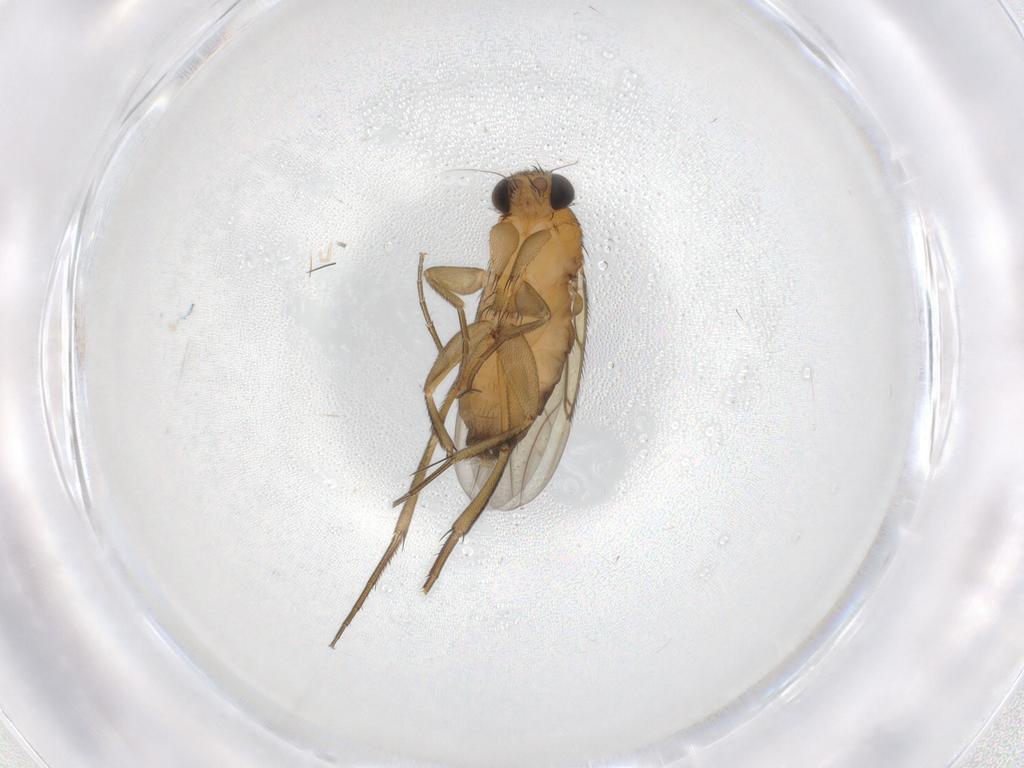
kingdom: Animalia
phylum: Arthropoda
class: Insecta
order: Diptera
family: Phoridae
